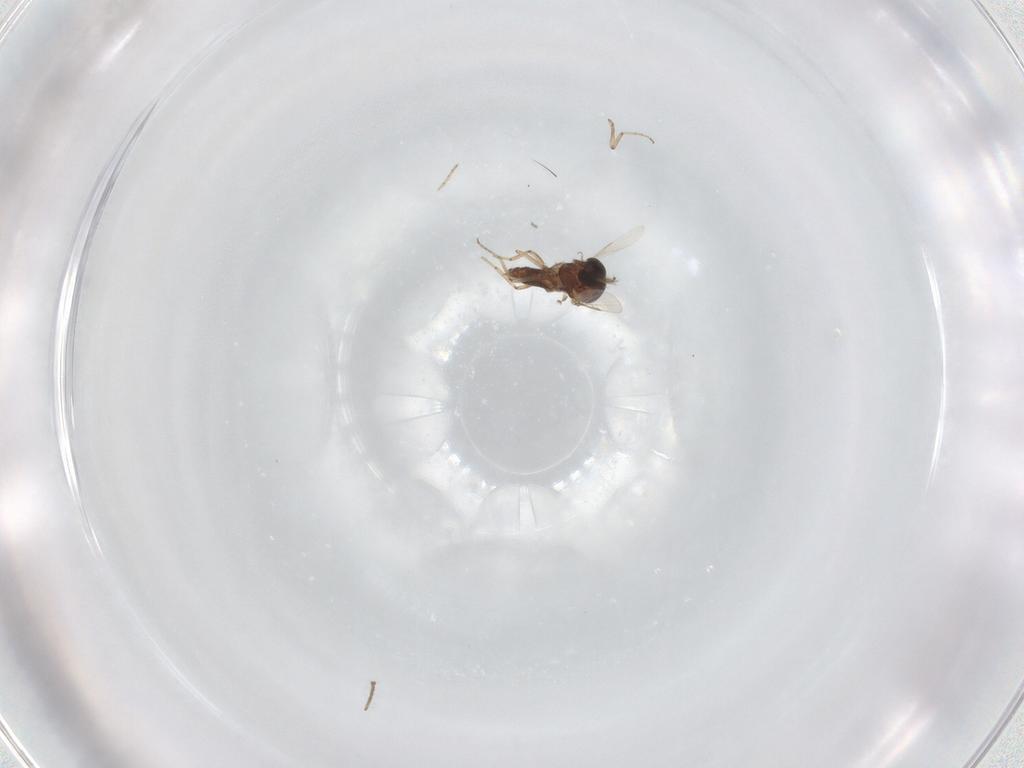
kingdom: Animalia
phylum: Arthropoda
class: Insecta
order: Diptera
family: Ceratopogonidae
